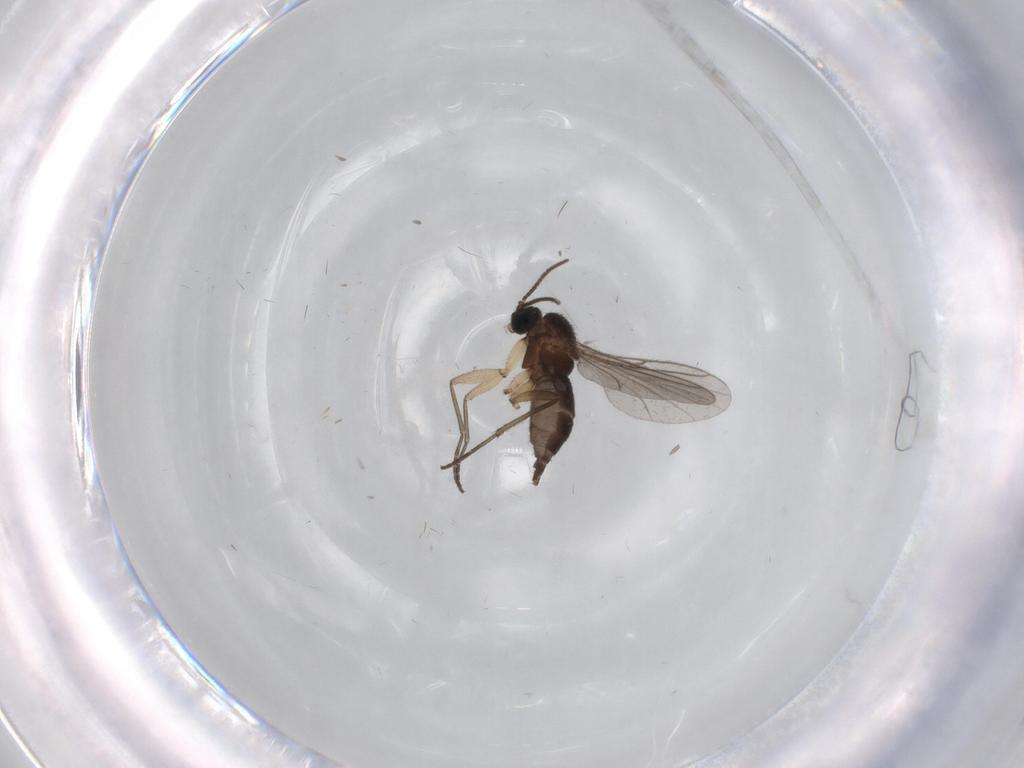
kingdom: Animalia
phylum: Arthropoda
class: Insecta
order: Diptera
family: Sciaridae
